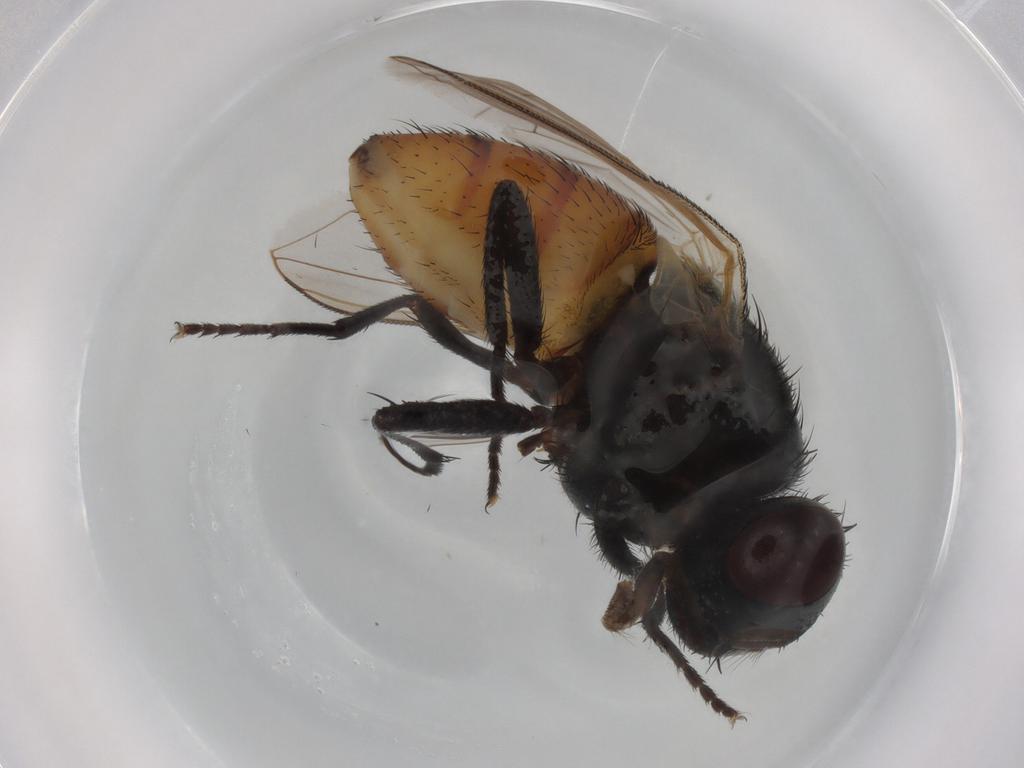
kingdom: Animalia
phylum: Arthropoda
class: Insecta
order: Diptera
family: Muscidae
